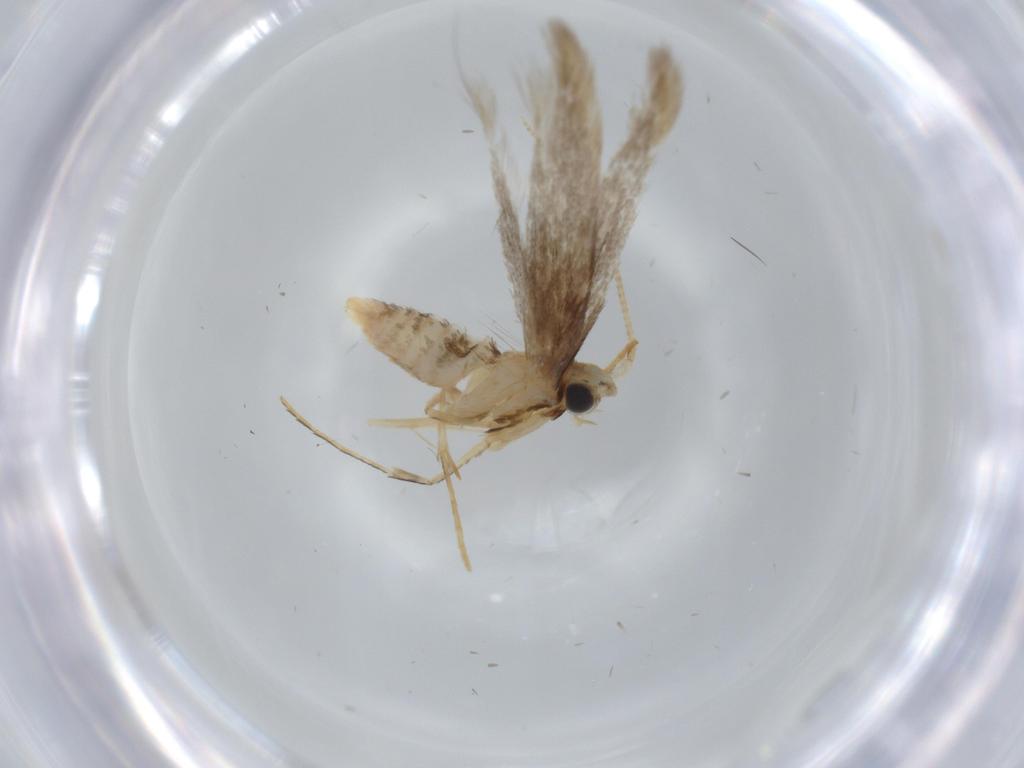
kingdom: Animalia
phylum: Arthropoda
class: Insecta
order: Lepidoptera
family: Tineidae
